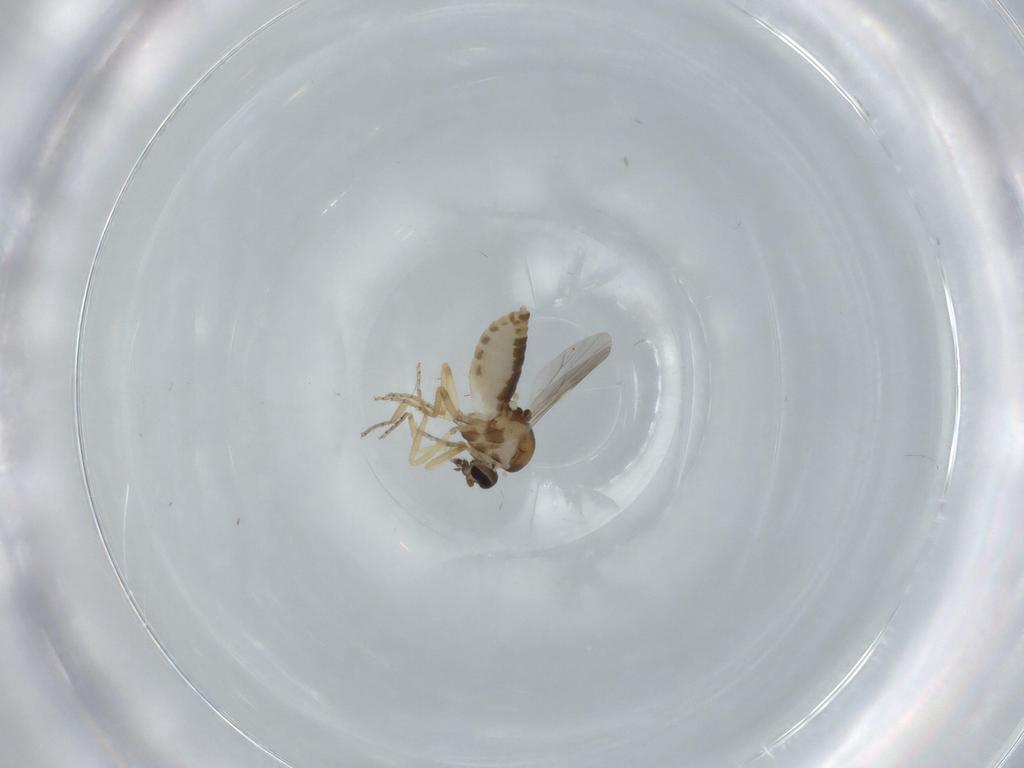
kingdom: Animalia
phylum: Arthropoda
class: Insecta
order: Diptera
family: Ceratopogonidae
